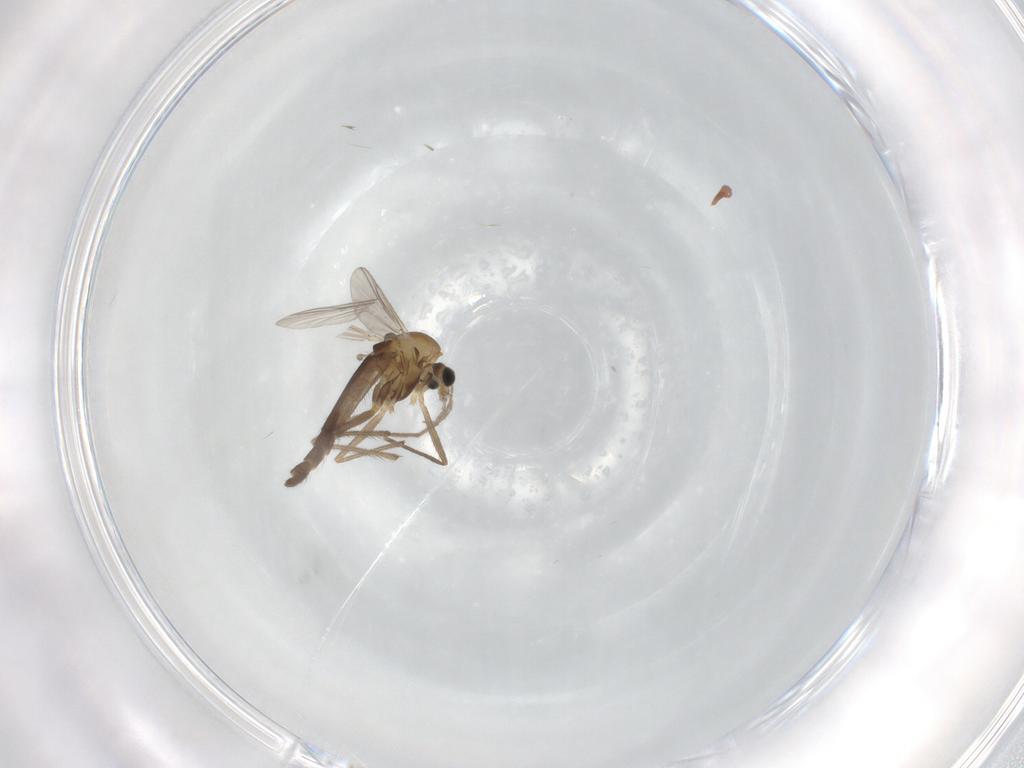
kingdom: Animalia
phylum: Arthropoda
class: Insecta
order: Diptera
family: Chironomidae
